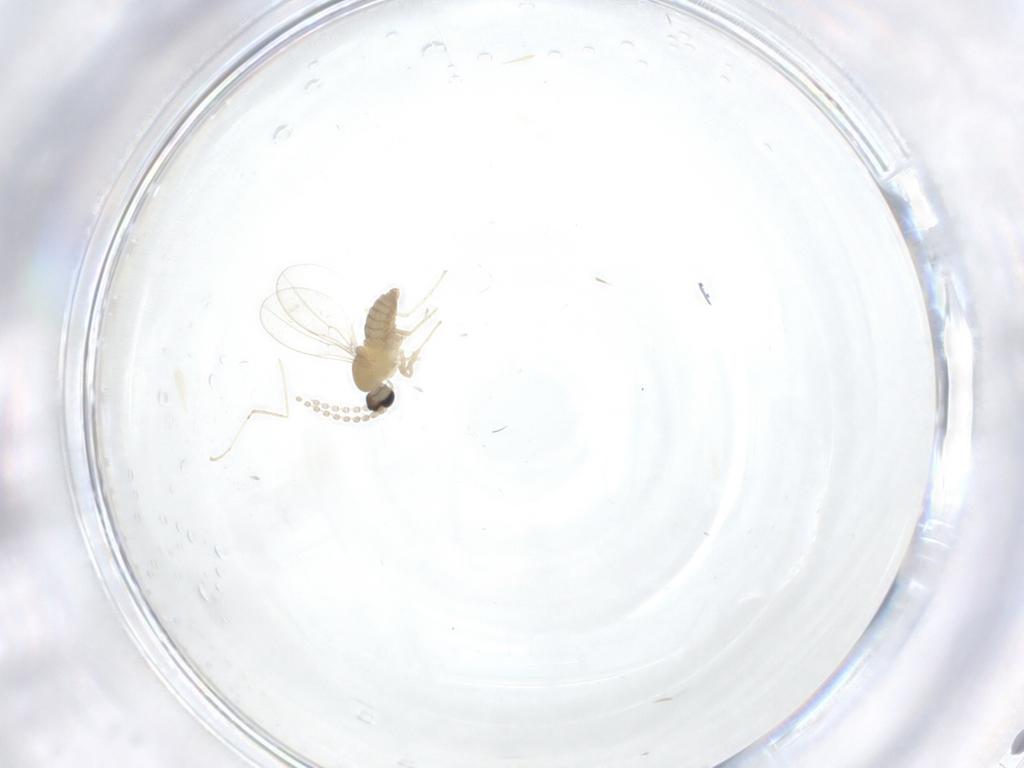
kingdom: Animalia
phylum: Arthropoda
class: Insecta
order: Diptera
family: Cecidomyiidae
